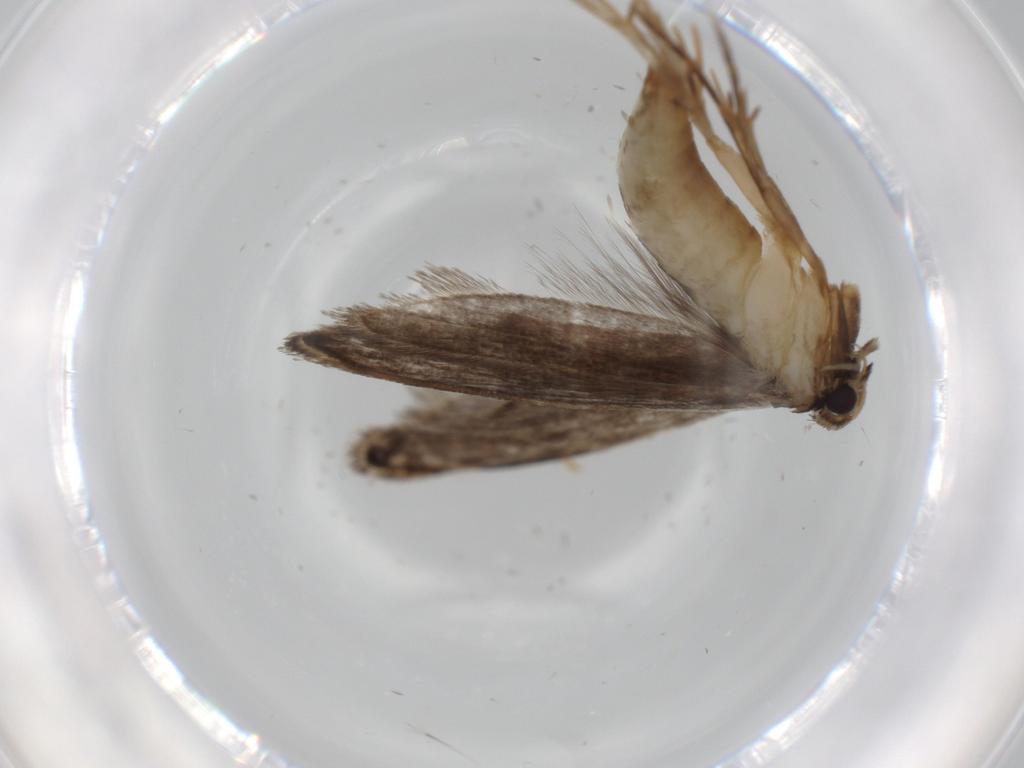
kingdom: Animalia
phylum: Arthropoda
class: Insecta
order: Lepidoptera
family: Tineidae
